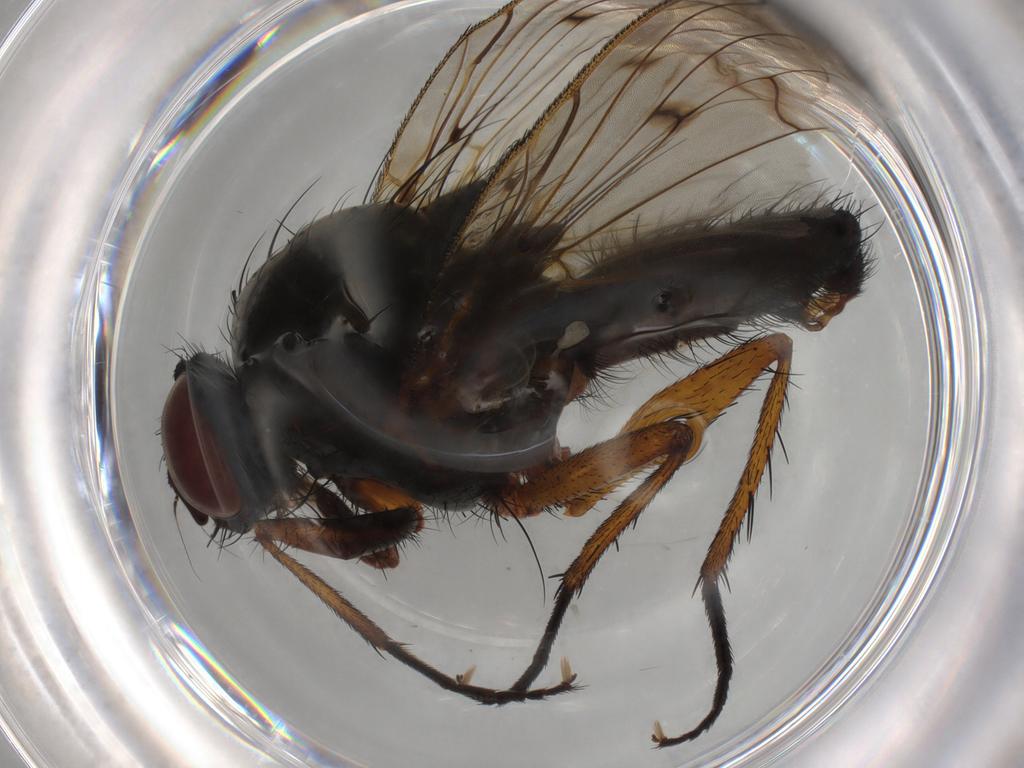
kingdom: Animalia
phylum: Arthropoda
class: Insecta
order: Diptera
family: Anthomyiidae
